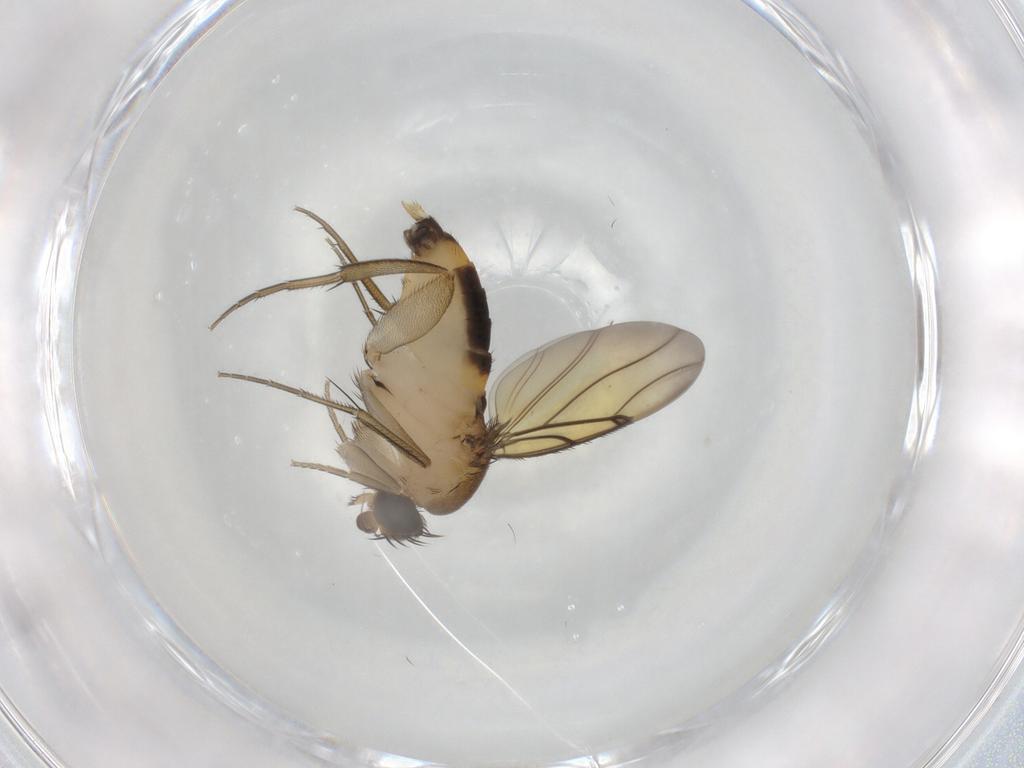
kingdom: Animalia
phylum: Arthropoda
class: Insecta
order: Diptera
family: Phoridae
